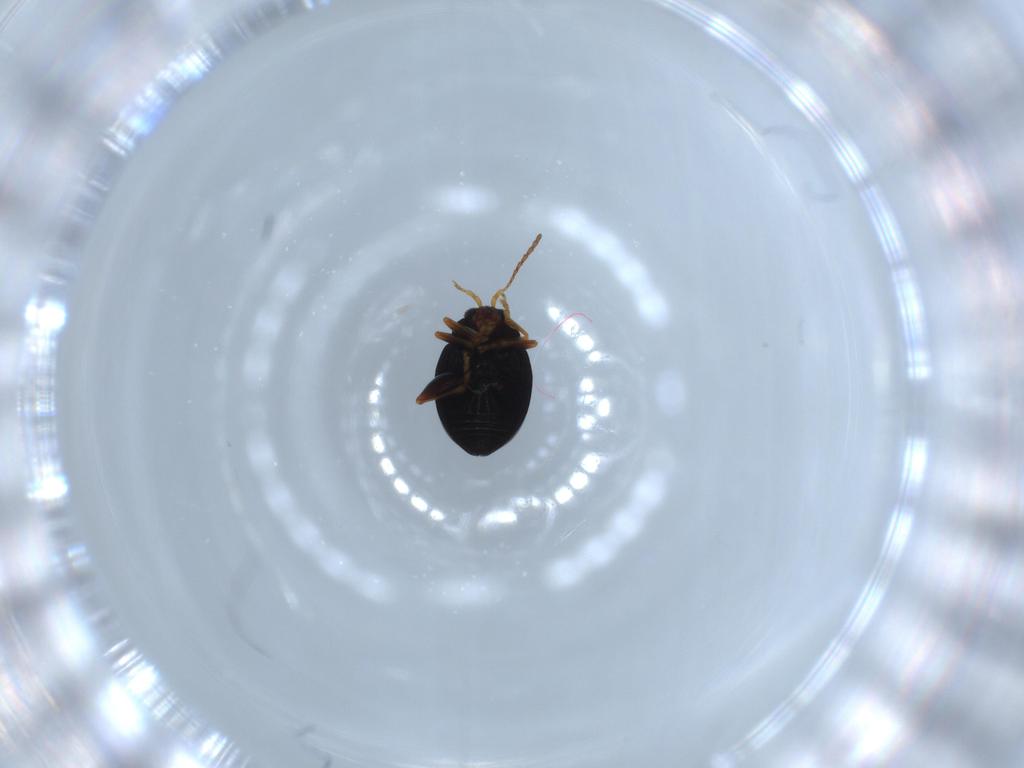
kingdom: Animalia
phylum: Arthropoda
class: Insecta
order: Coleoptera
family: Chrysomelidae
